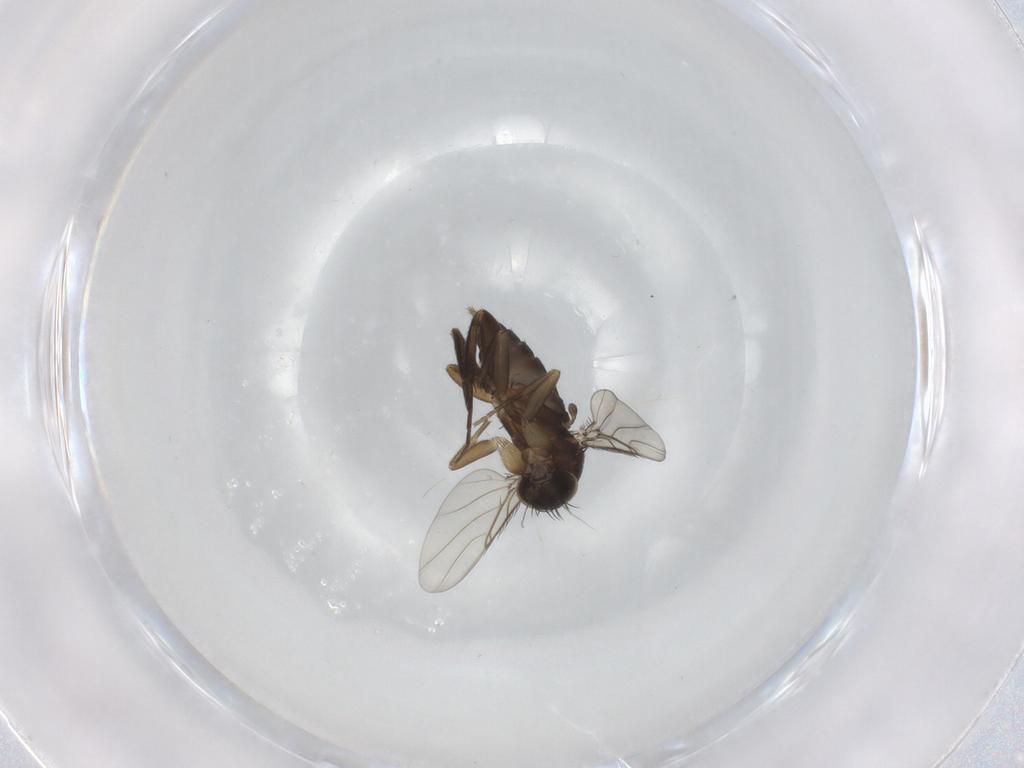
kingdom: Animalia
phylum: Arthropoda
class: Insecta
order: Diptera
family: Phoridae
